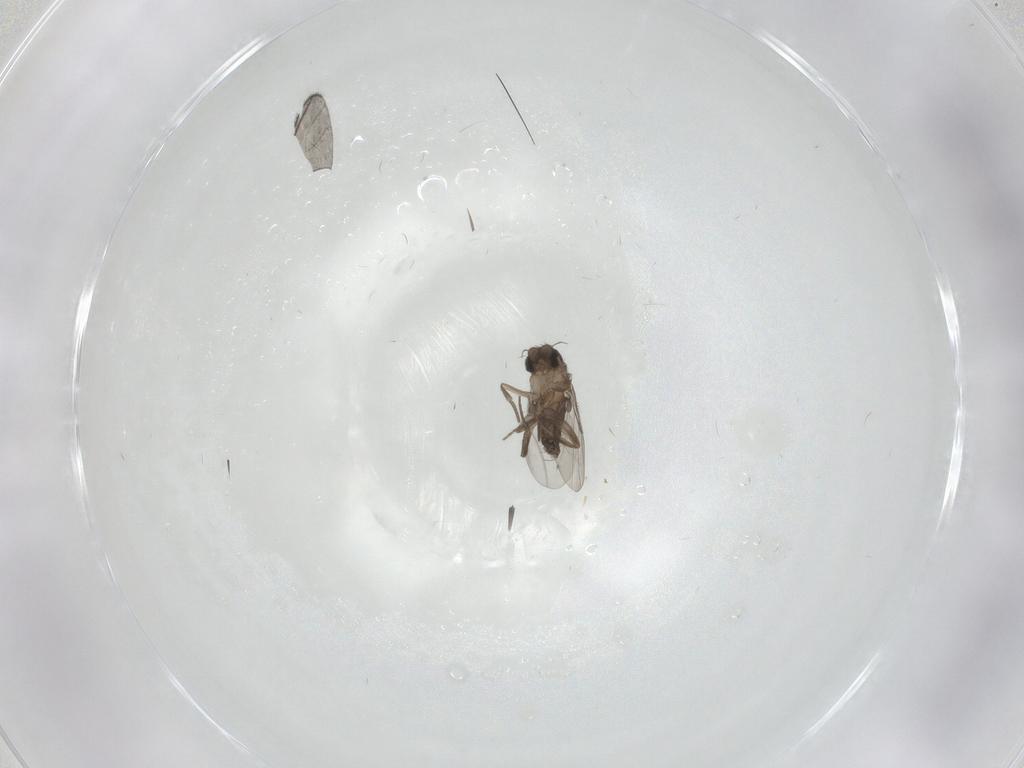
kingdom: Animalia
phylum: Arthropoda
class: Insecta
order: Diptera
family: Sciaridae
